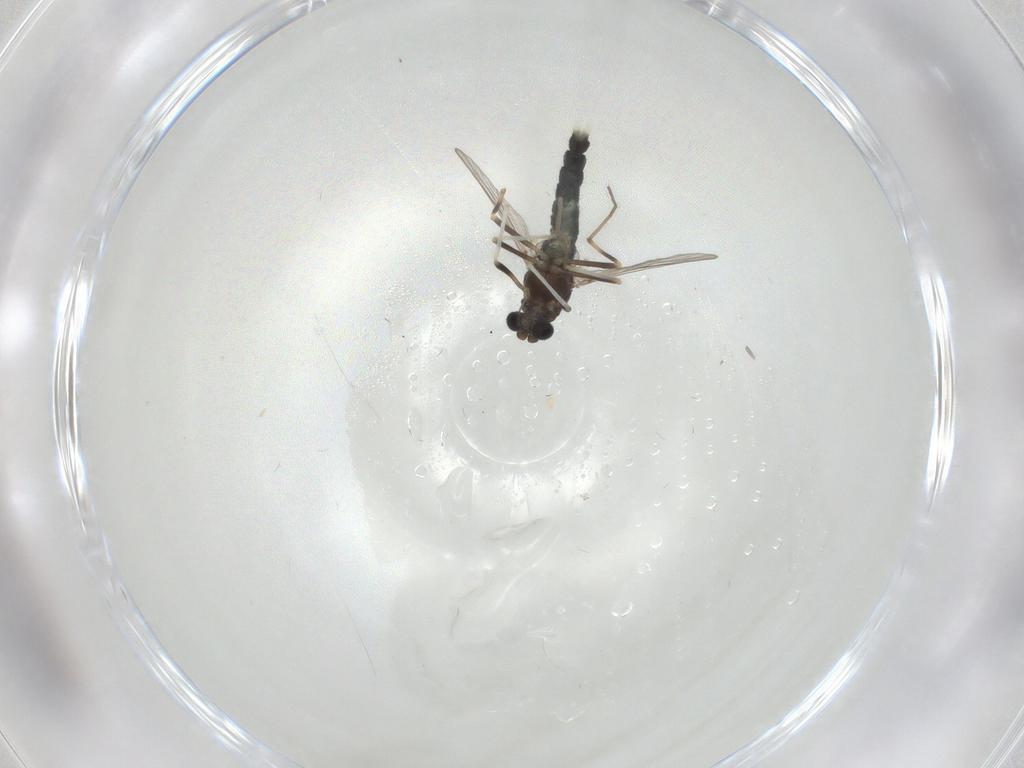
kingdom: Animalia
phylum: Arthropoda
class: Insecta
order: Diptera
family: Chironomidae
